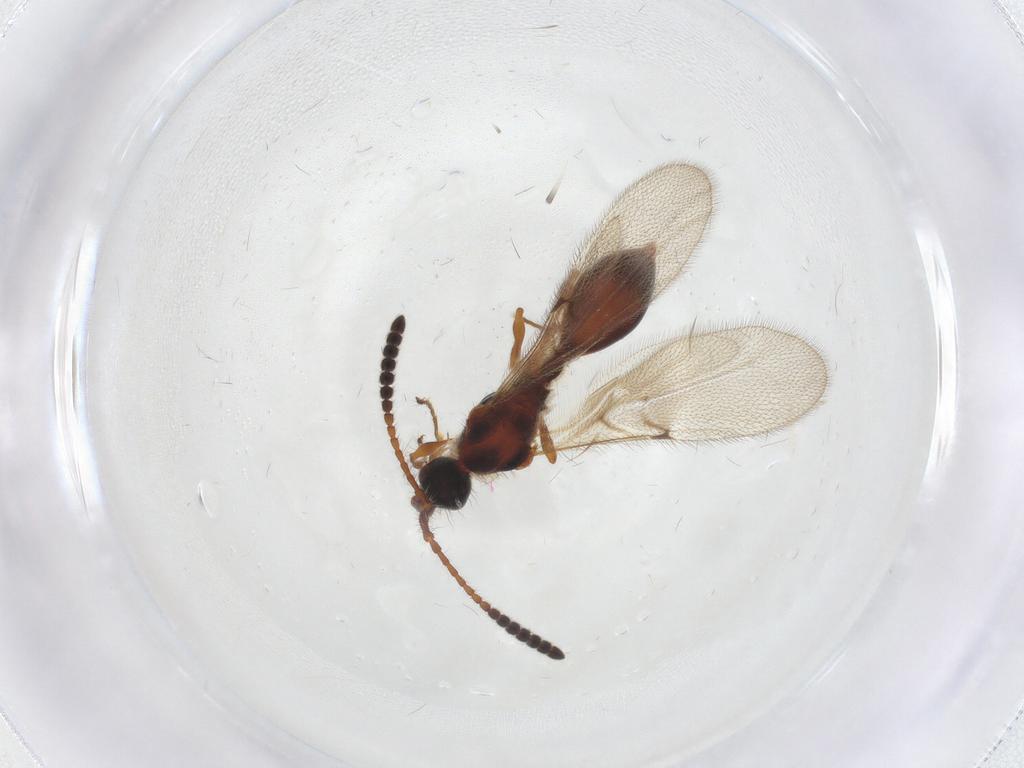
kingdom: Animalia
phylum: Arthropoda
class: Insecta
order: Hymenoptera
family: Diapriidae
